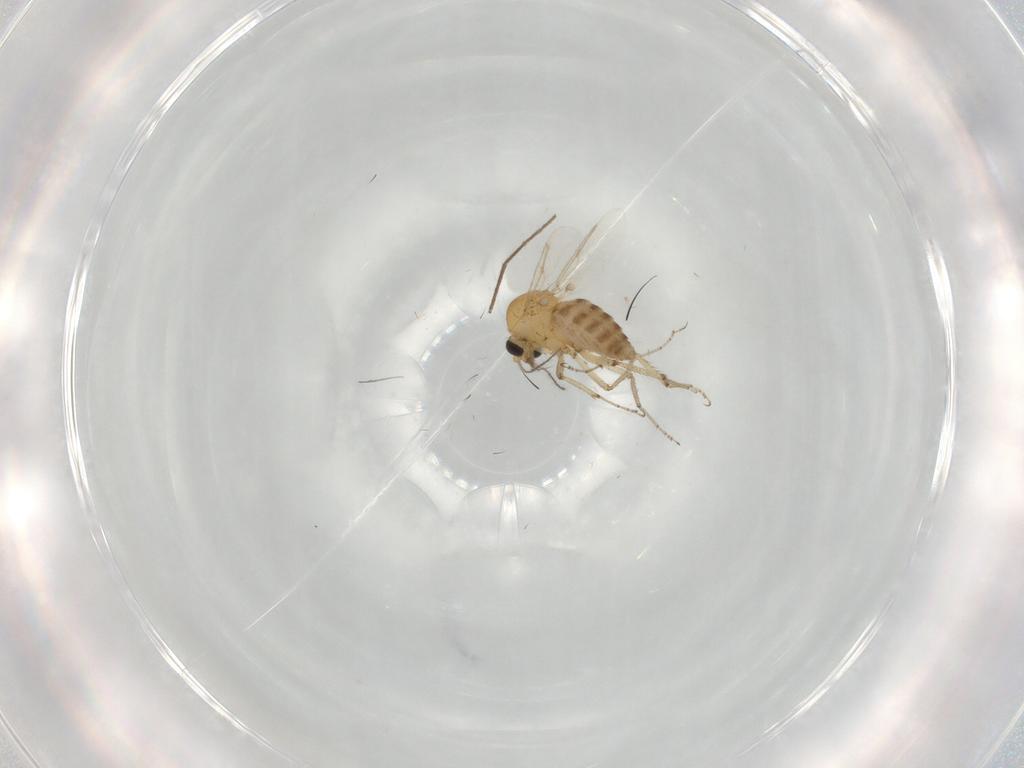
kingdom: Animalia
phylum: Arthropoda
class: Insecta
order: Diptera
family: Ceratopogonidae
